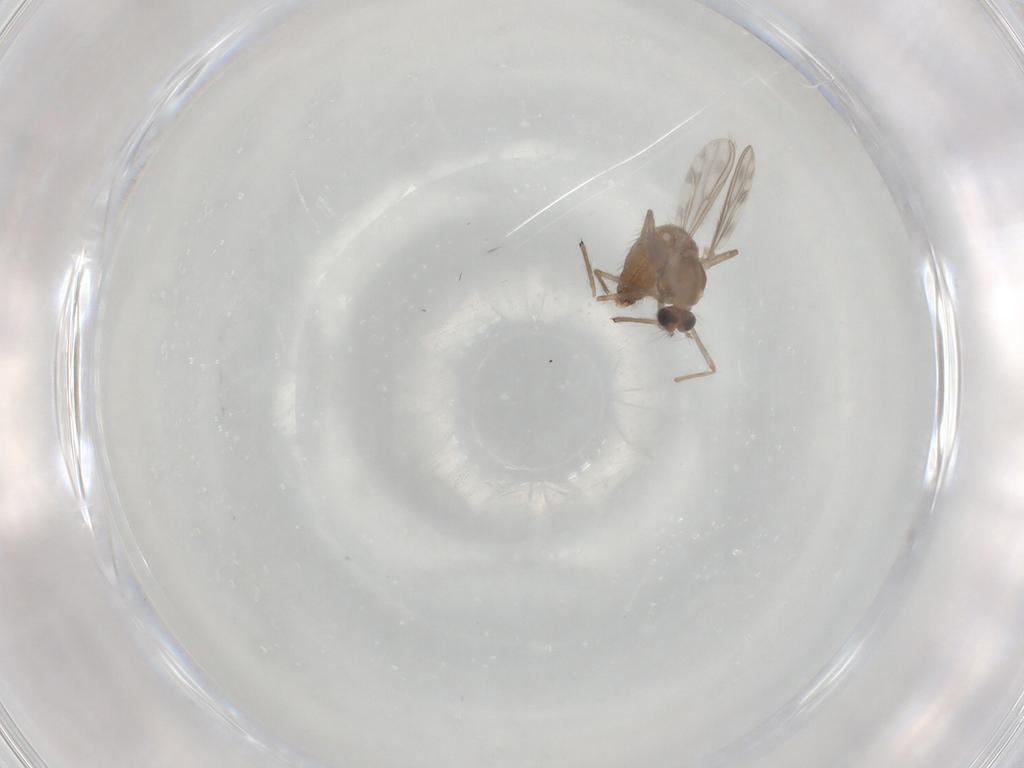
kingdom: Animalia
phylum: Arthropoda
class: Insecta
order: Diptera
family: Chironomidae
